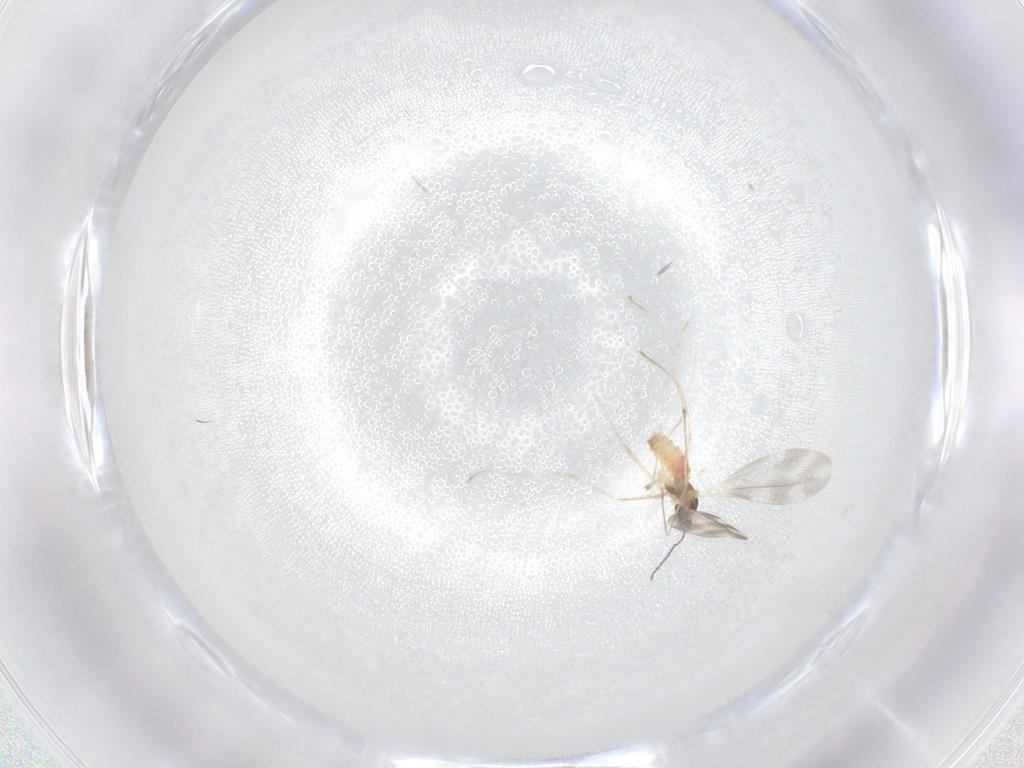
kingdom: Animalia
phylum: Arthropoda
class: Insecta
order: Diptera
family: Cecidomyiidae
